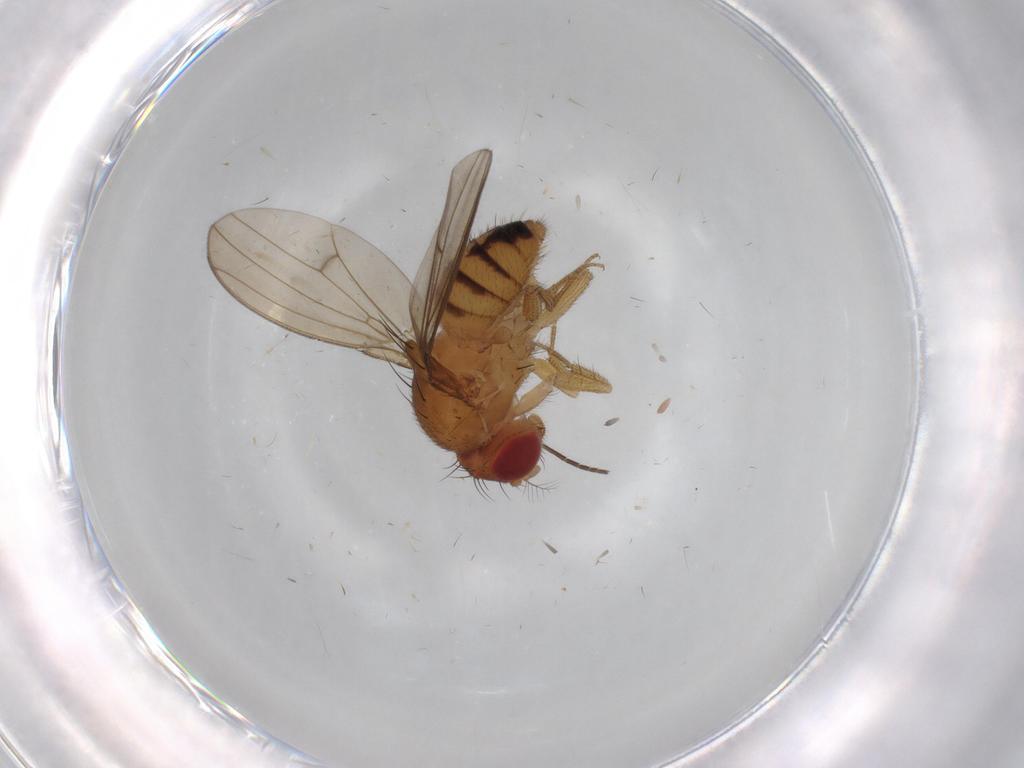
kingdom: Animalia
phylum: Arthropoda
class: Insecta
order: Diptera
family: Drosophilidae
